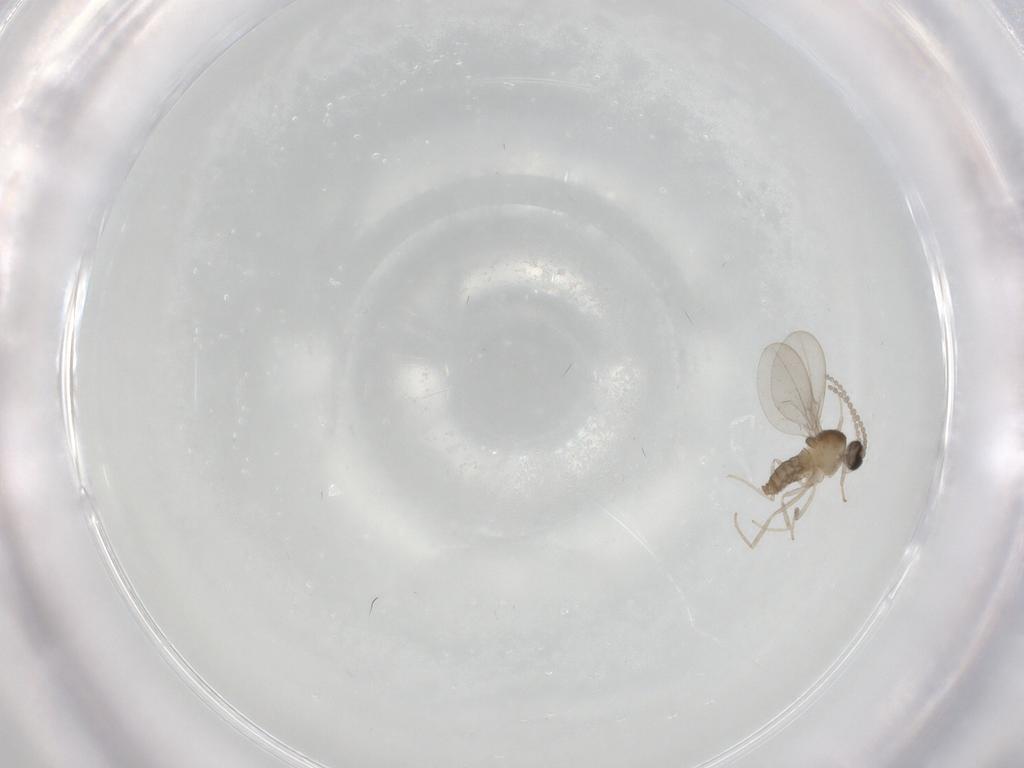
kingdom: Animalia
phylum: Arthropoda
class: Insecta
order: Diptera
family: Cecidomyiidae
